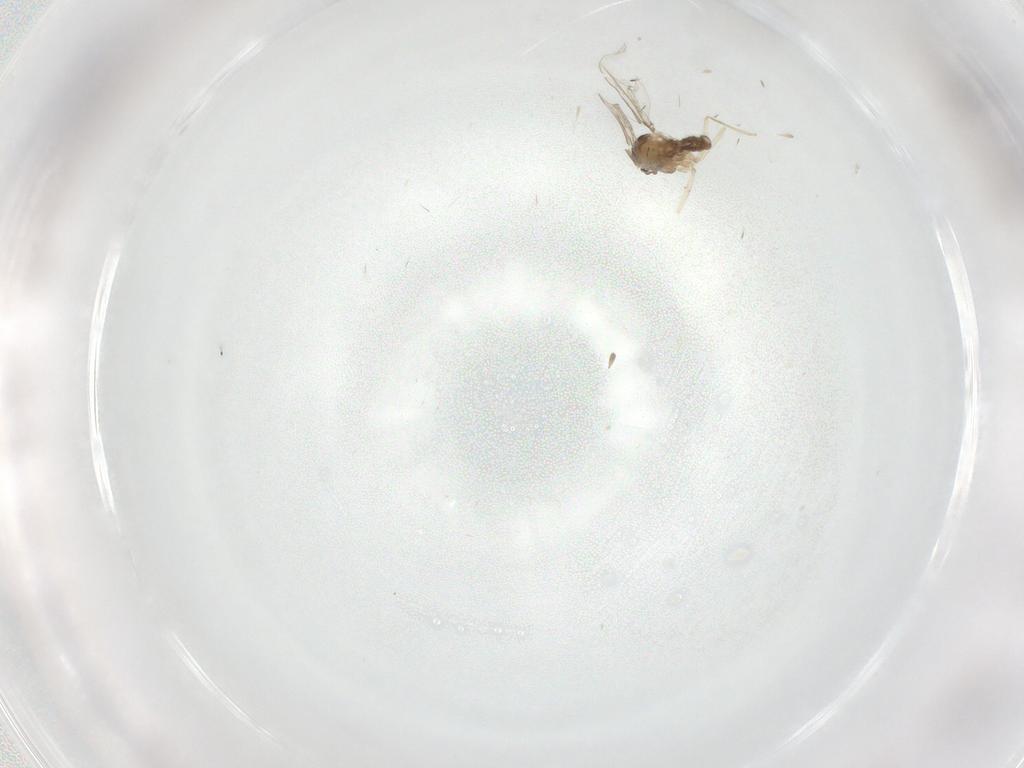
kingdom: Animalia
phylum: Arthropoda
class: Insecta
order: Diptera
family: Cecidomyiidae
